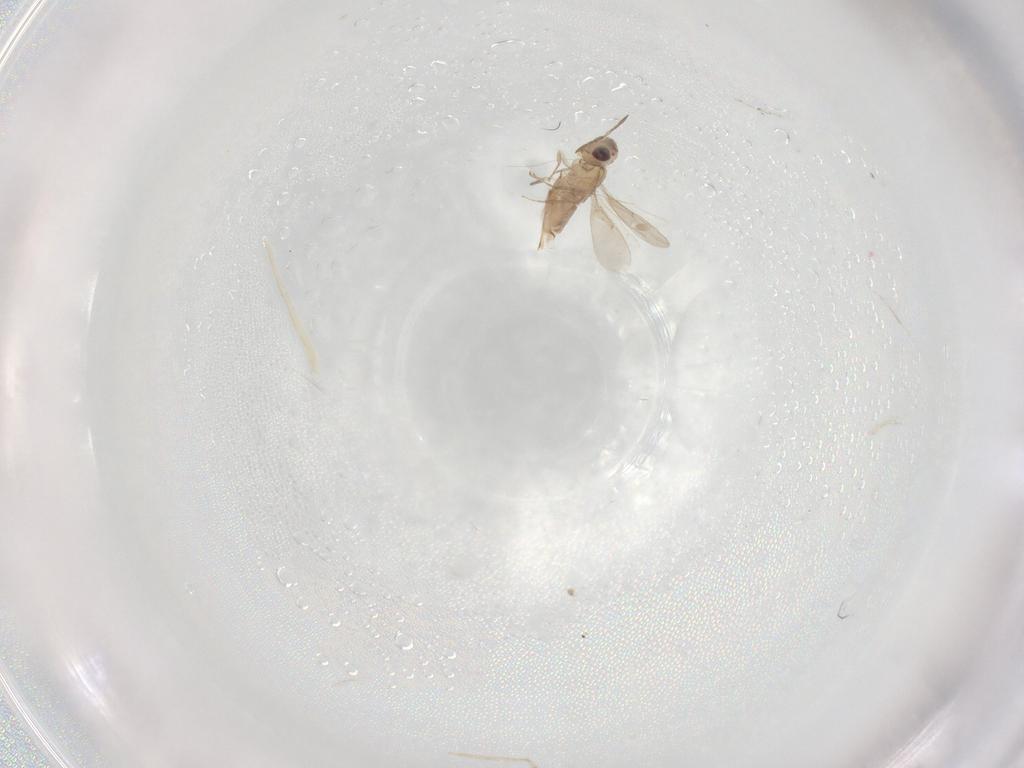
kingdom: Animalia
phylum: Arthropoda
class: Insecta
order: Hymenoptera
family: Aphelinidae
